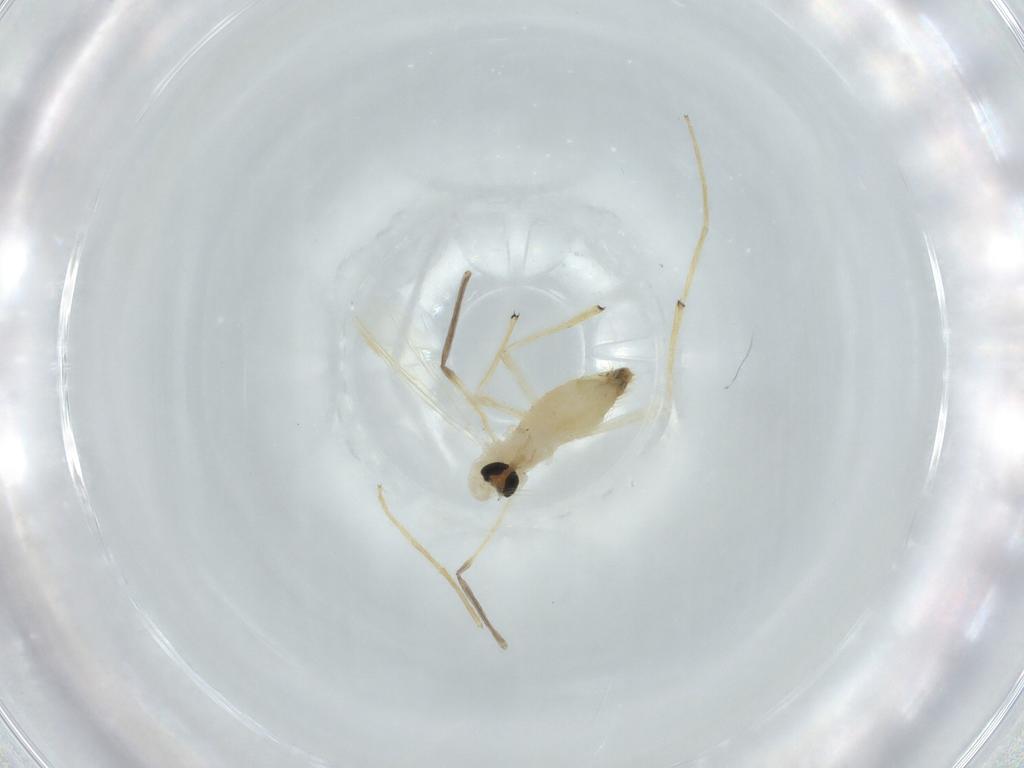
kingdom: Animalia
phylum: Arthropoda
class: Insecta
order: Diptera
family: Chironomidae
